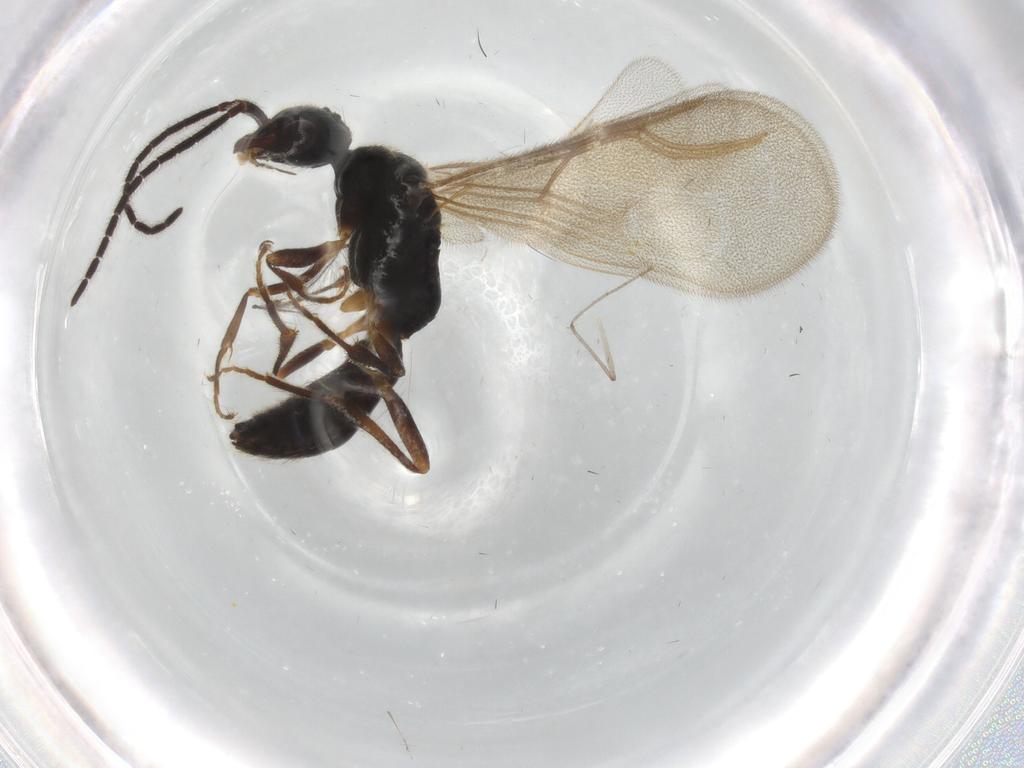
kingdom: Animalia
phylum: Arthropoda
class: Insecta
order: Hymenoptera
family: Bethylidae
